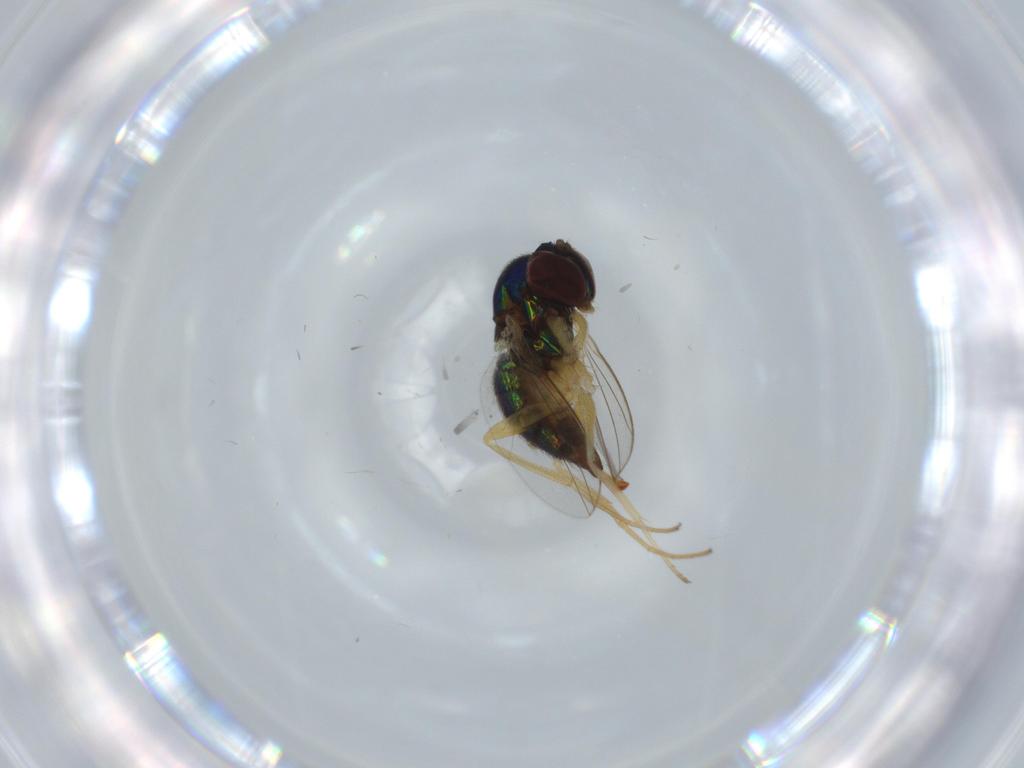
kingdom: Animalia
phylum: Arthropoda
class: Insecta
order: Diptera
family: Dolichopodidae
